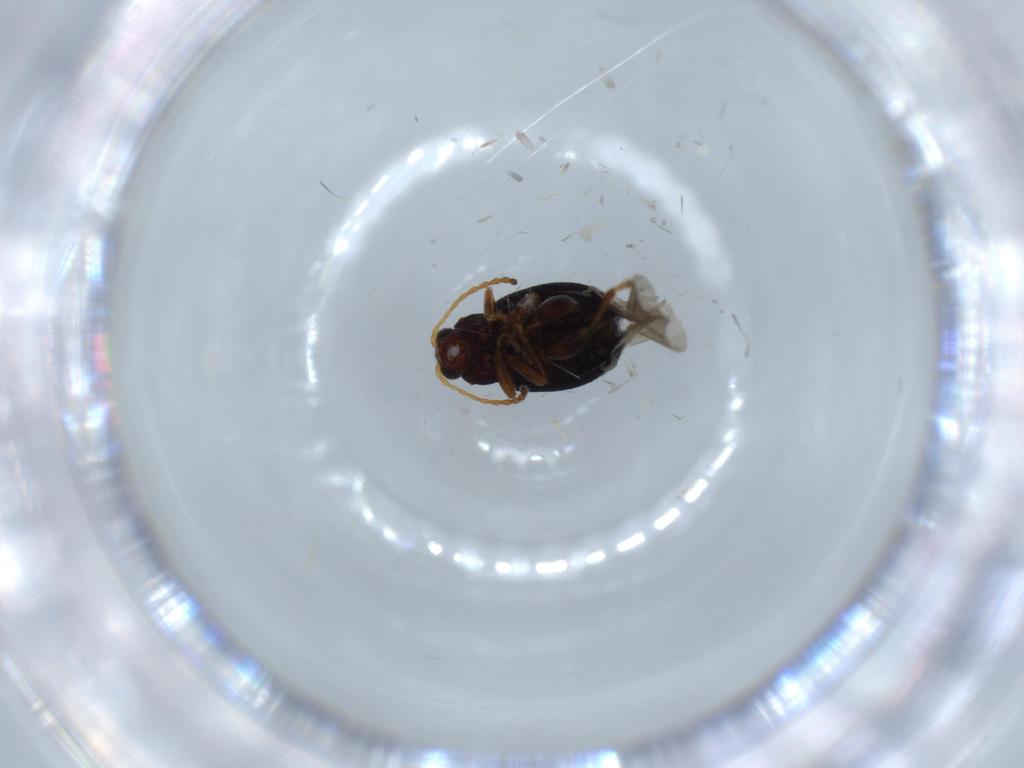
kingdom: Animalia
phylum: Arthropoda
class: Insecta
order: Coleoptera
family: Chrysomelidae
